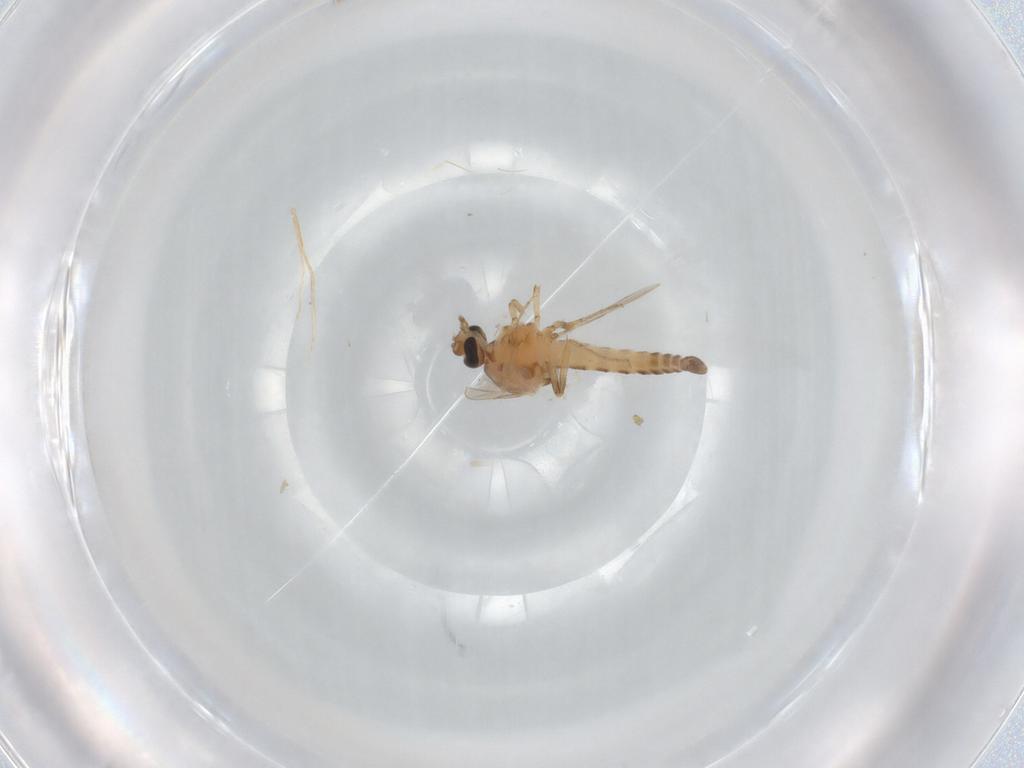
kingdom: Animalia
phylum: Arthropoda
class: Insecta
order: Diptera
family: Ceratopogonidae
